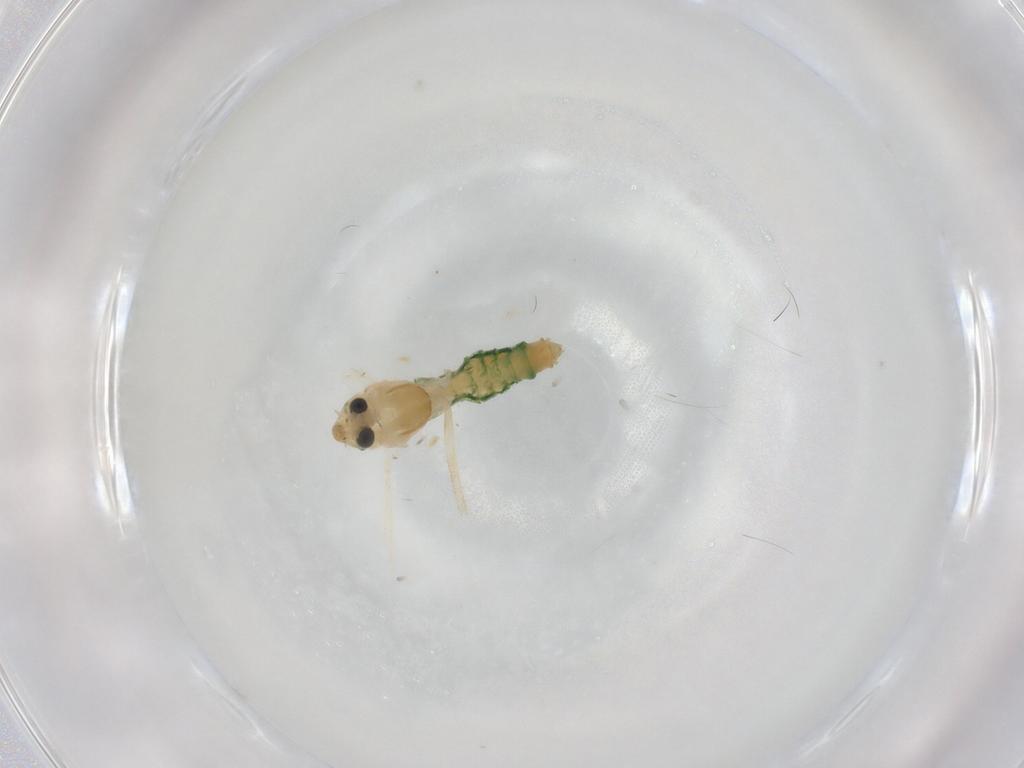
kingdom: Animalia
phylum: Arthropoda
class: Insecta
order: Diptera
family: Chironomidae
